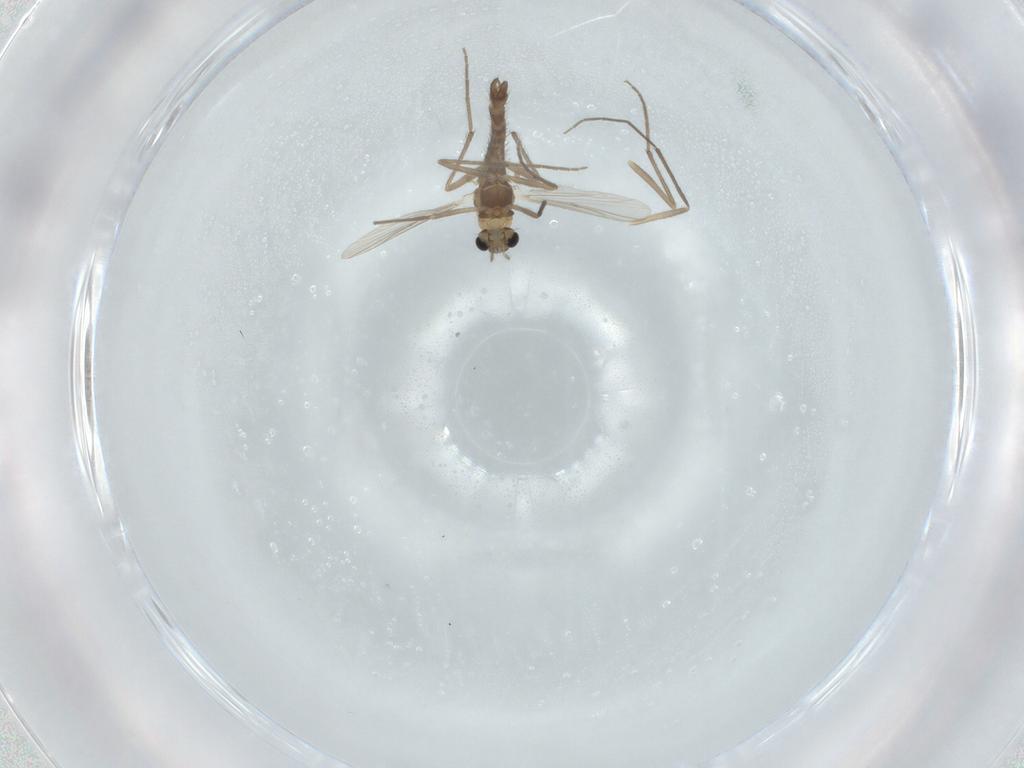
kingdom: Animalia
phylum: Arthropoda
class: Insecta
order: Diptera
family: Chironomidae
